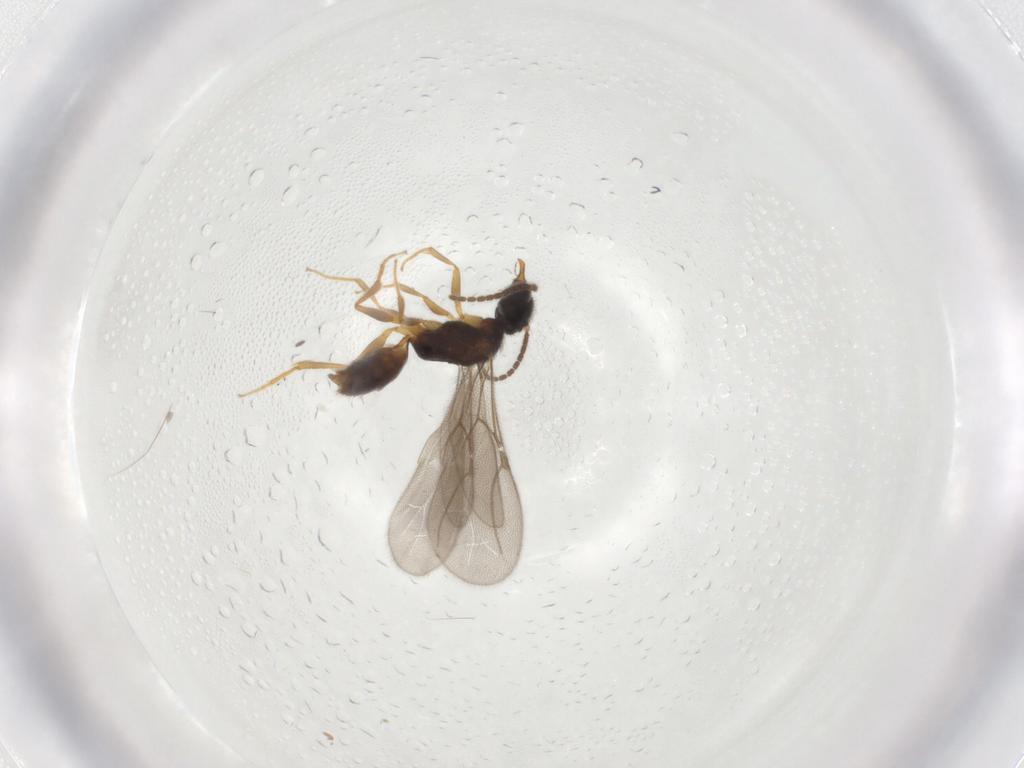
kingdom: Animalia
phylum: Arthropoda
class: Insecta
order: Hymenoptera
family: Bethylidae
